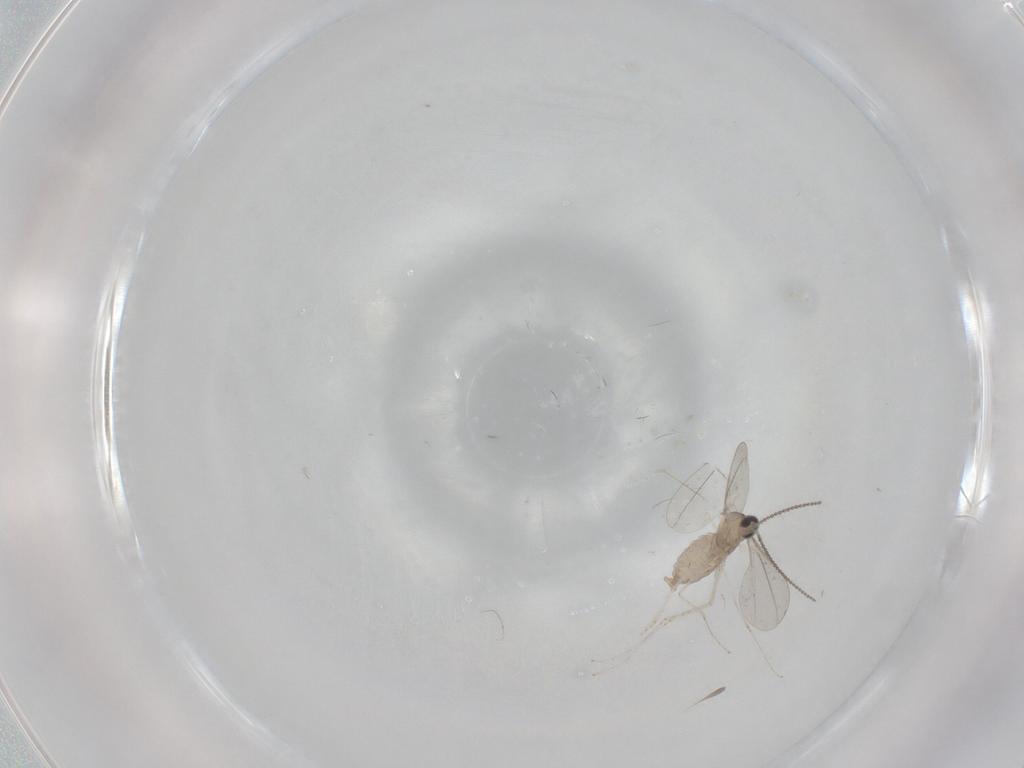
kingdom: Animalia
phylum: Arthropoda
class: Insecta
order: Diptera
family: Cecidomyiidae
